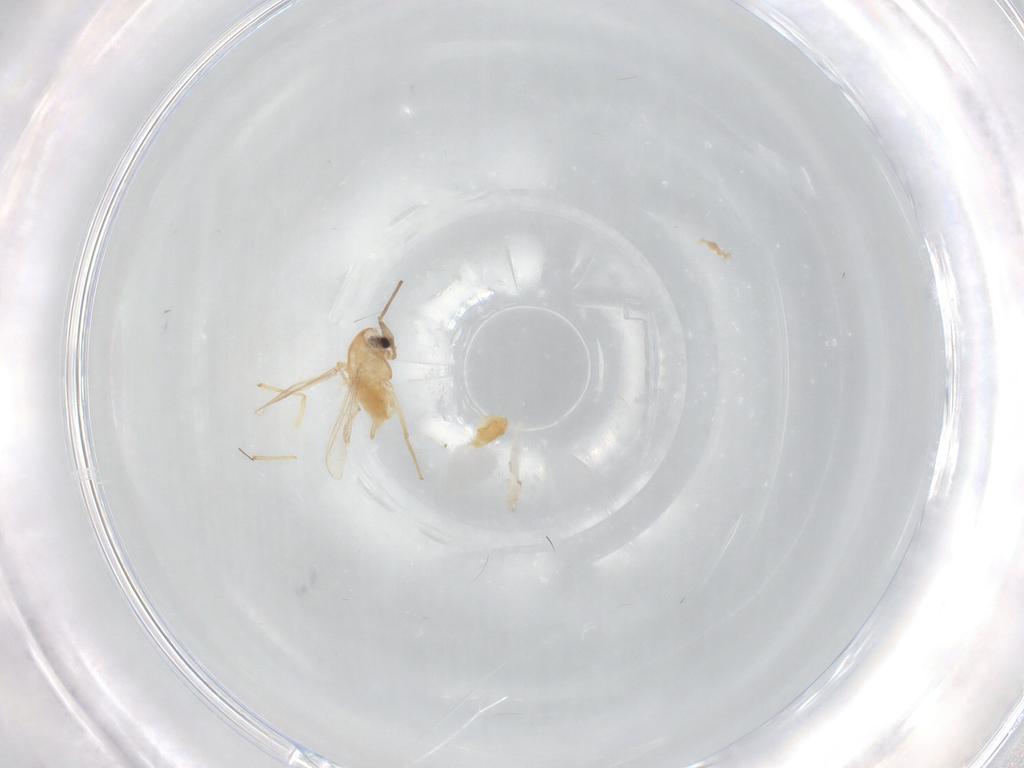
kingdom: Animalia
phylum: Arthropoda
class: Insecta
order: Diptera
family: Chironomidae
